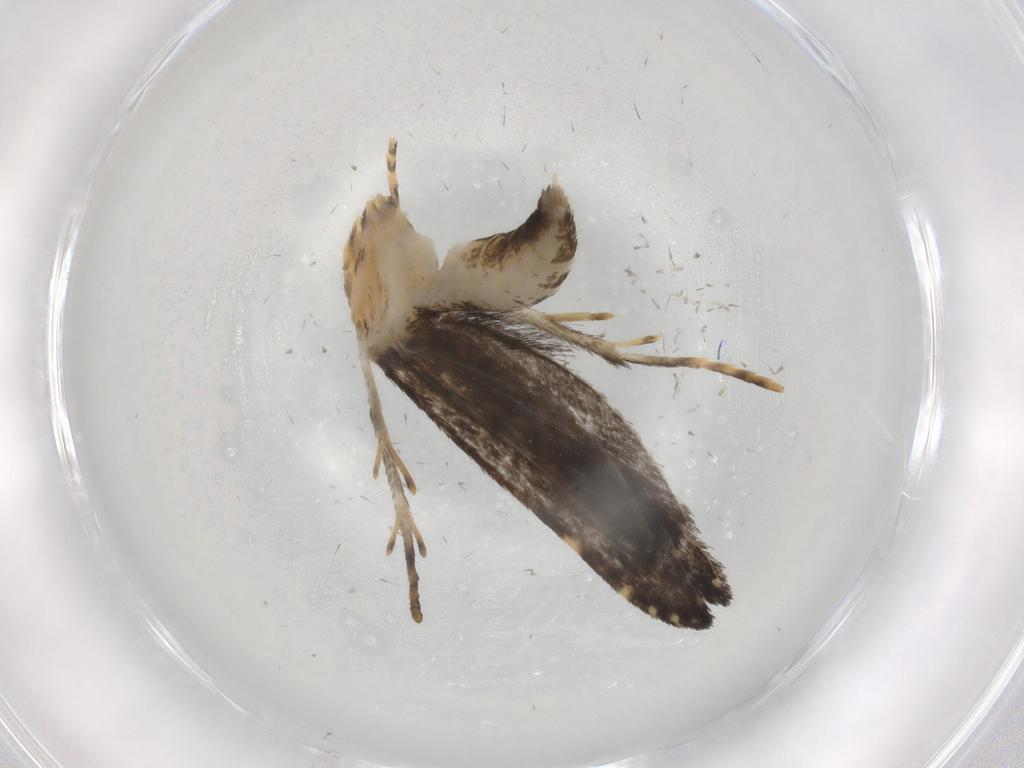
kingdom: Animalia
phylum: Arthropoda
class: Insecta
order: Lepidoptera
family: Tineidae
